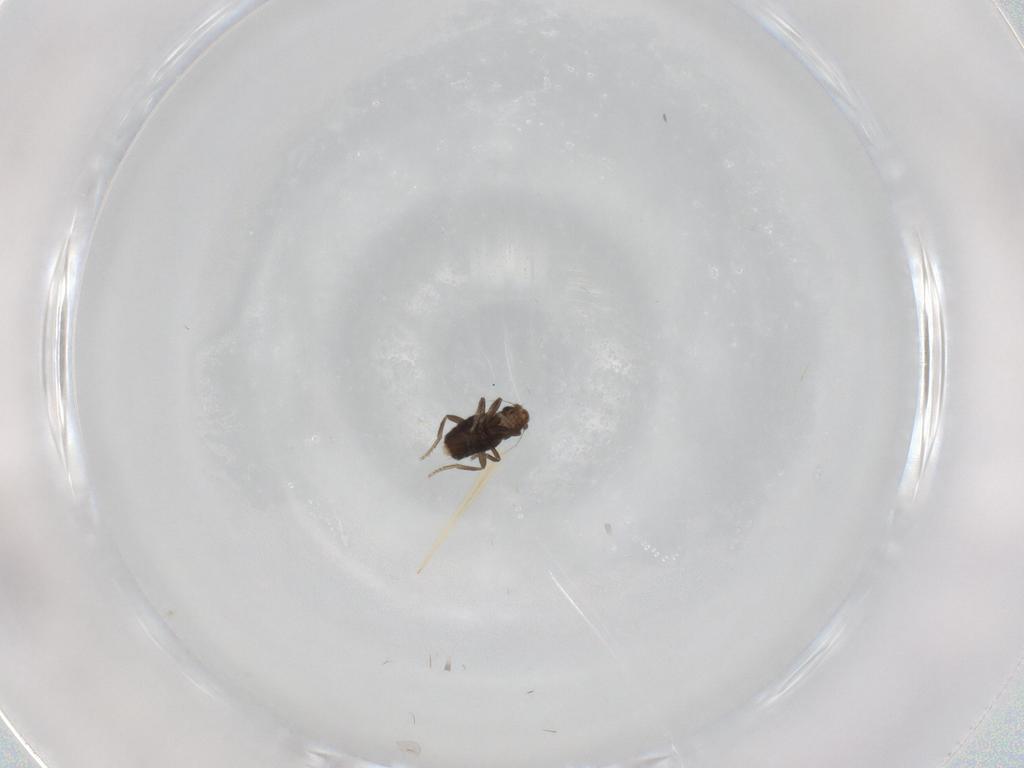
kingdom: Animalia
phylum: Arthropoda
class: Insecta
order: Diptera
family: Phoridae
